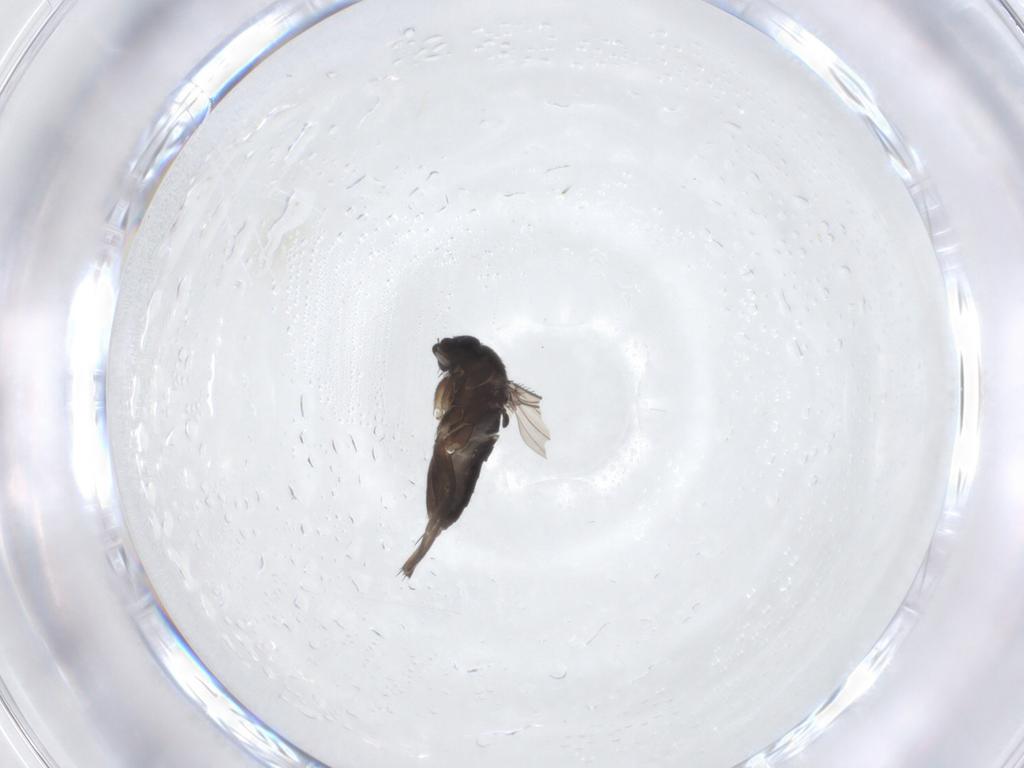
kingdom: Animalia
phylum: Arthropoda
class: Insecta
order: Diptera
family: Phoridae
